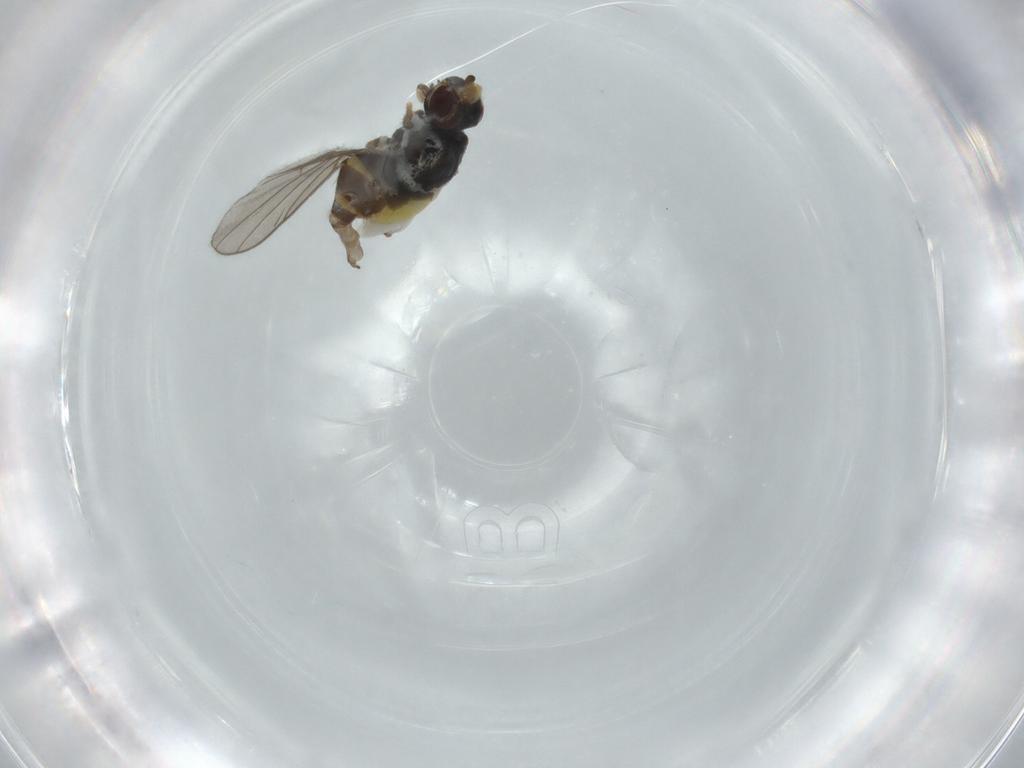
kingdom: Animalia
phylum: Arthropoda
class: Insecta
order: Diptera
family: Chloropidae
